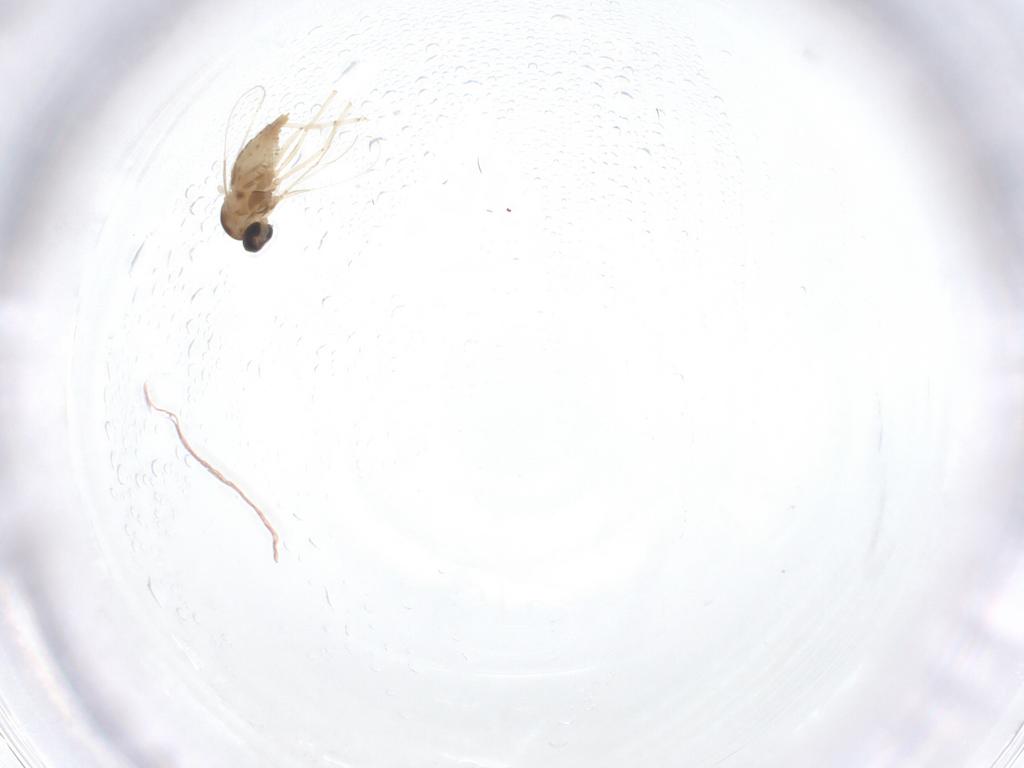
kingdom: Animalia
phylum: Arthropoda
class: Insecta
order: Diptera
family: Cecidomyiidae
